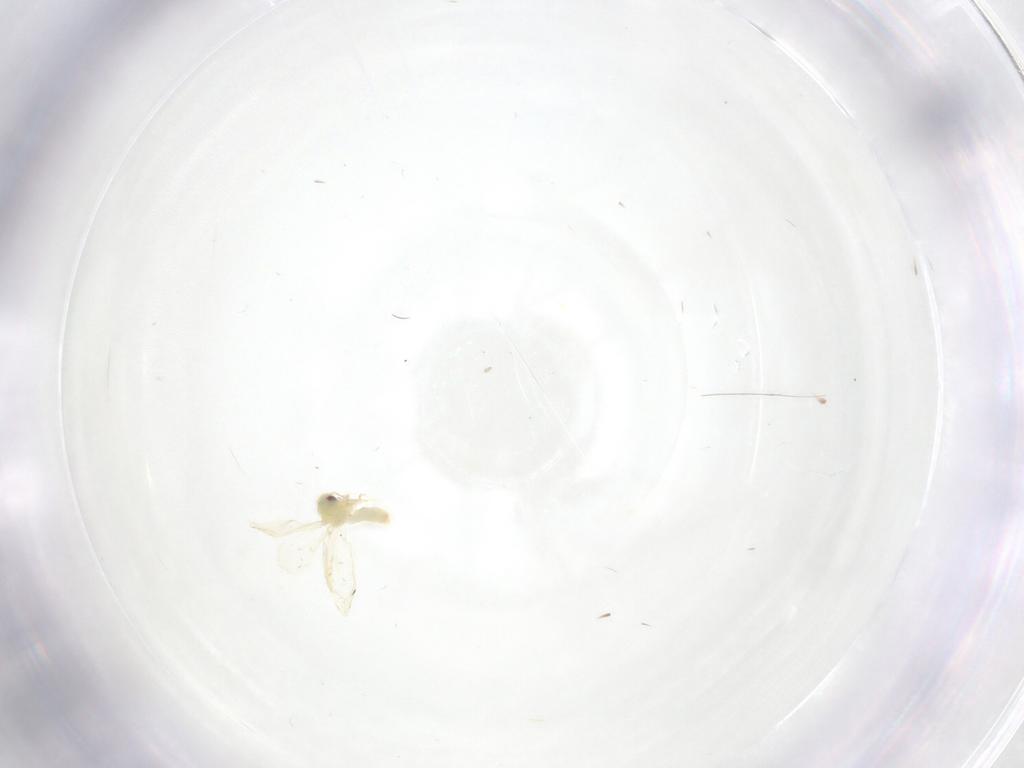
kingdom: Animalia
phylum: Arthropoda
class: Insecta
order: Hemiptera
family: Aleyrodidae
